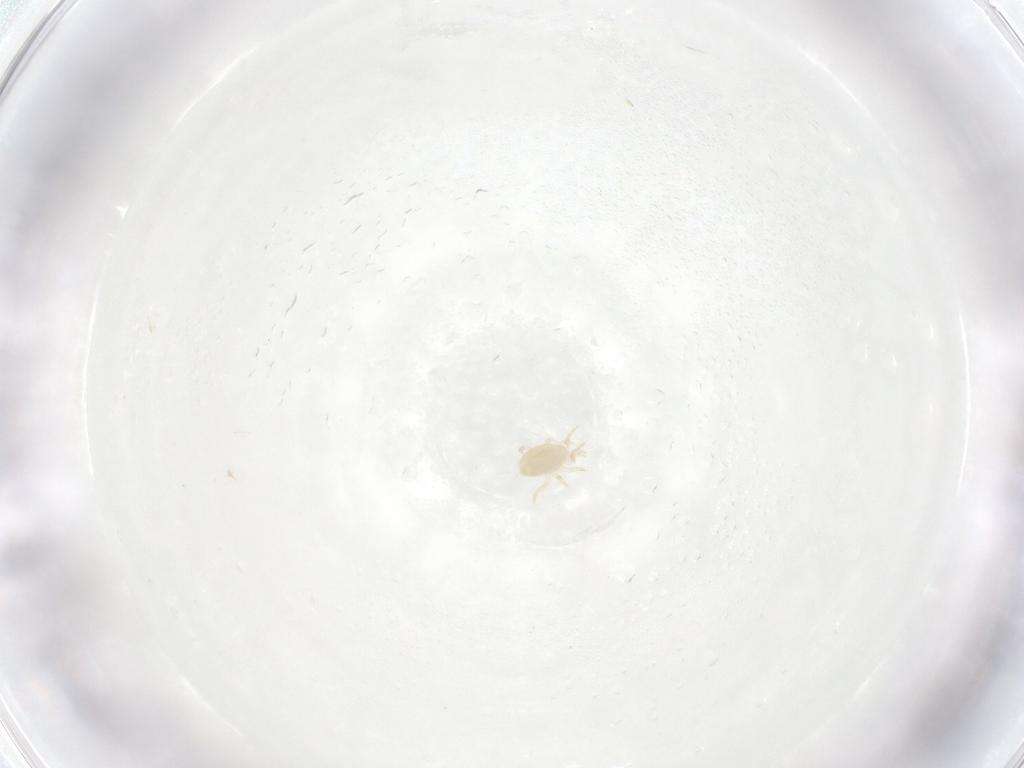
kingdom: Animalia
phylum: Arthropoda
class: Arachnida
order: Mesostigmata
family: Phytoseiidae
